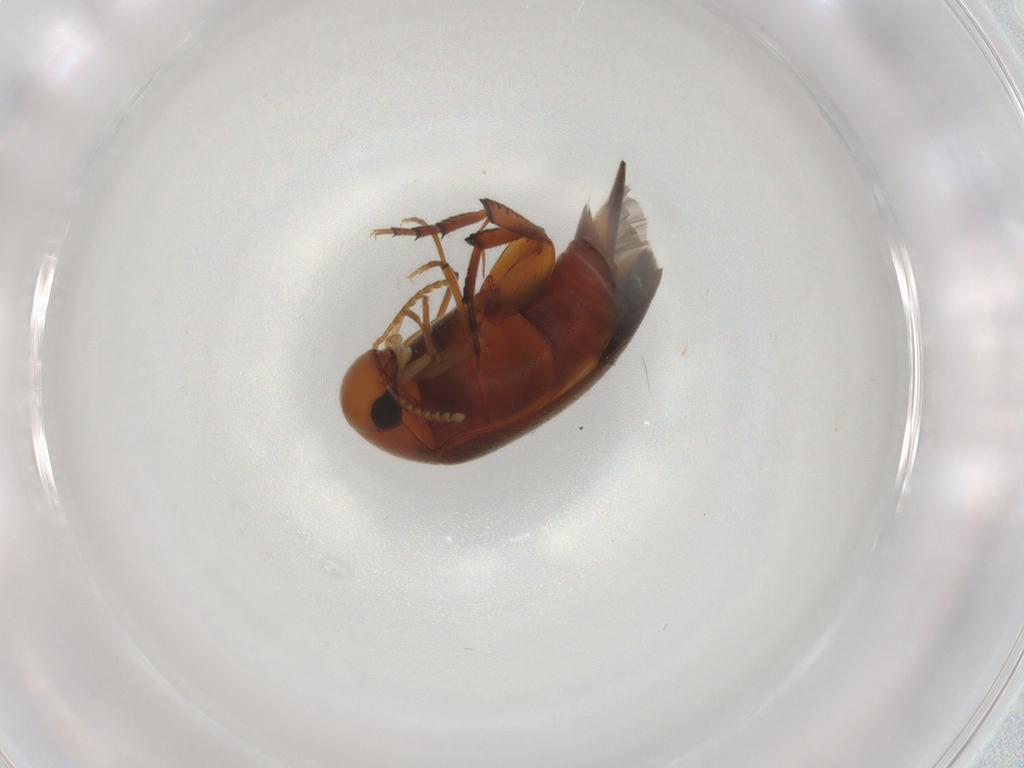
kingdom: Animalia
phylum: Arthropoda
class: Insecta
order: Coleoptera
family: Mordellidae
